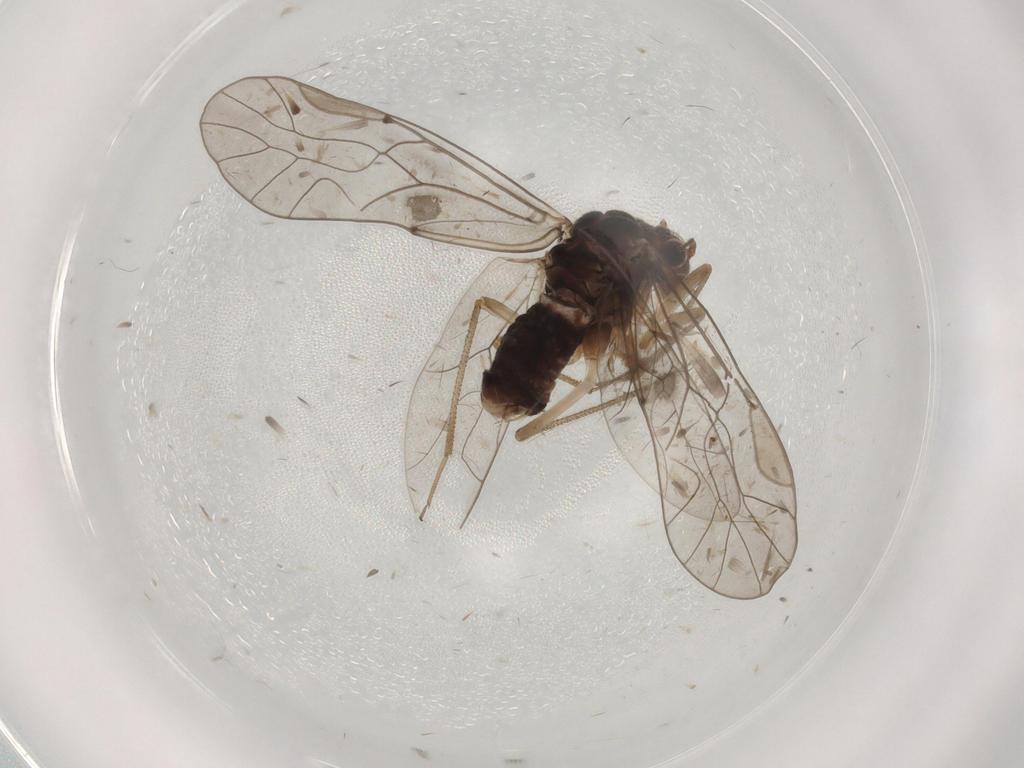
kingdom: Animalia
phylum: Arthropoda
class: Insecta
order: Psocodea
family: Lachesillidae
